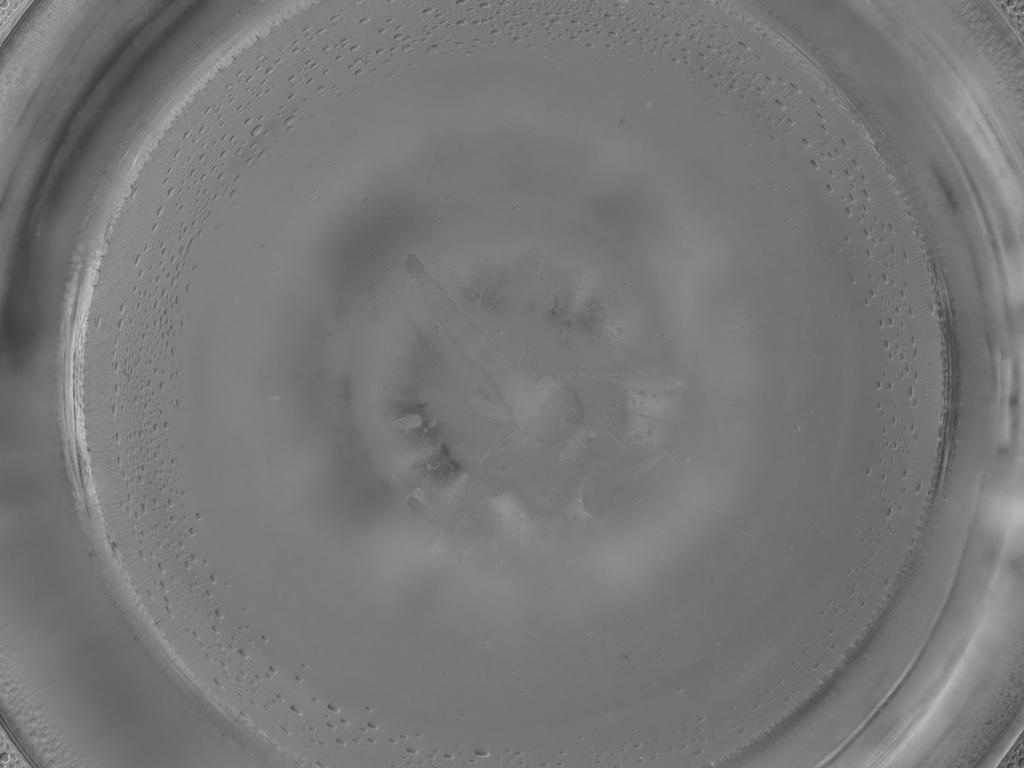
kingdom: Animalia
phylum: Arthropoda
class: Insecta
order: Diptera
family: Ceratopogonidae
